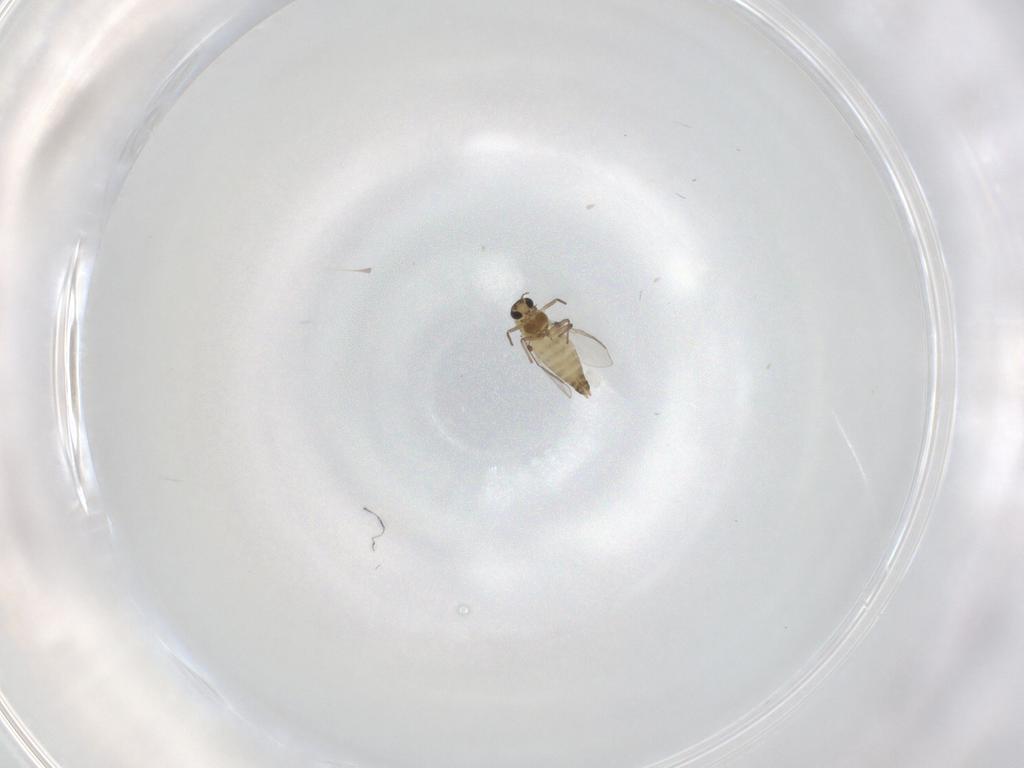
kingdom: Animalia
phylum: Arthropoda
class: Insecta
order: Diptera
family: Chironomidae
